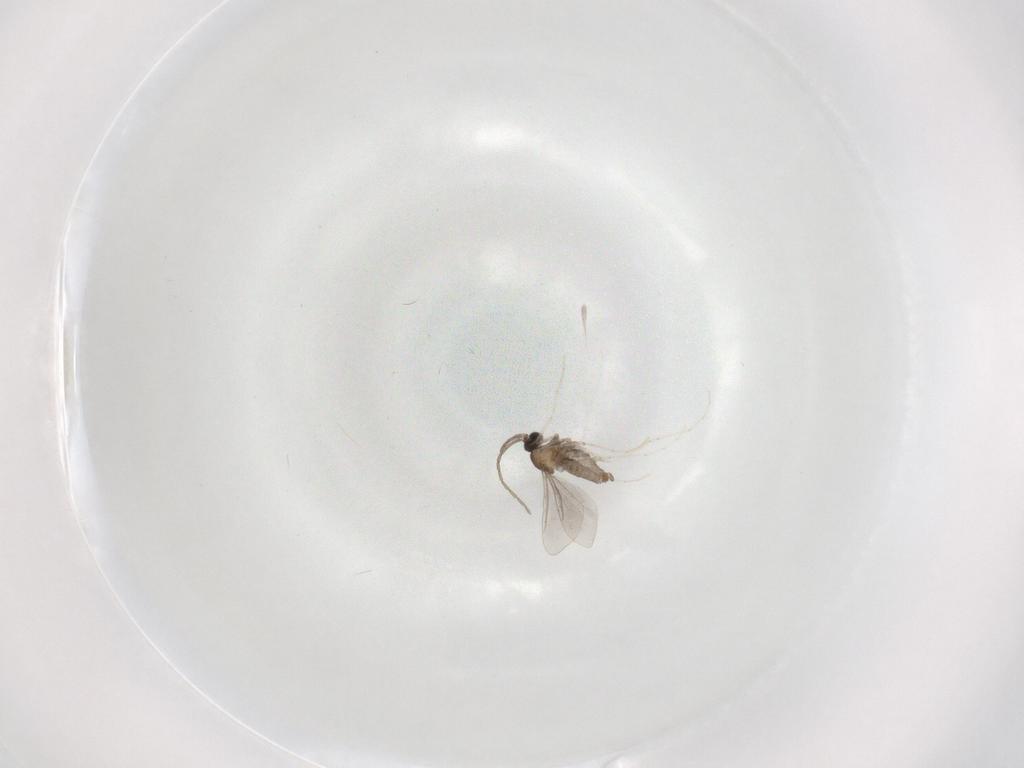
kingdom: Animalia
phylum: Arthropoda
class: Insecta
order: Diptera
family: Cecidomyiidae
